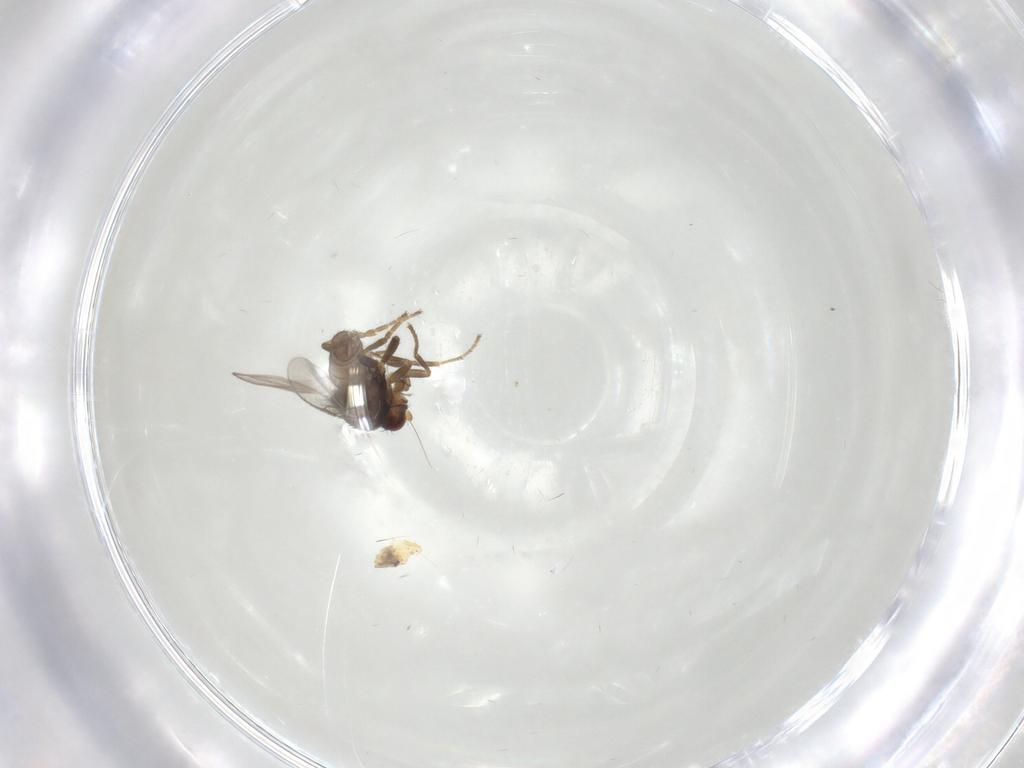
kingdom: Animalia
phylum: Arthropoda
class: Insecta
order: Diptera
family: Sphaeroceridae
